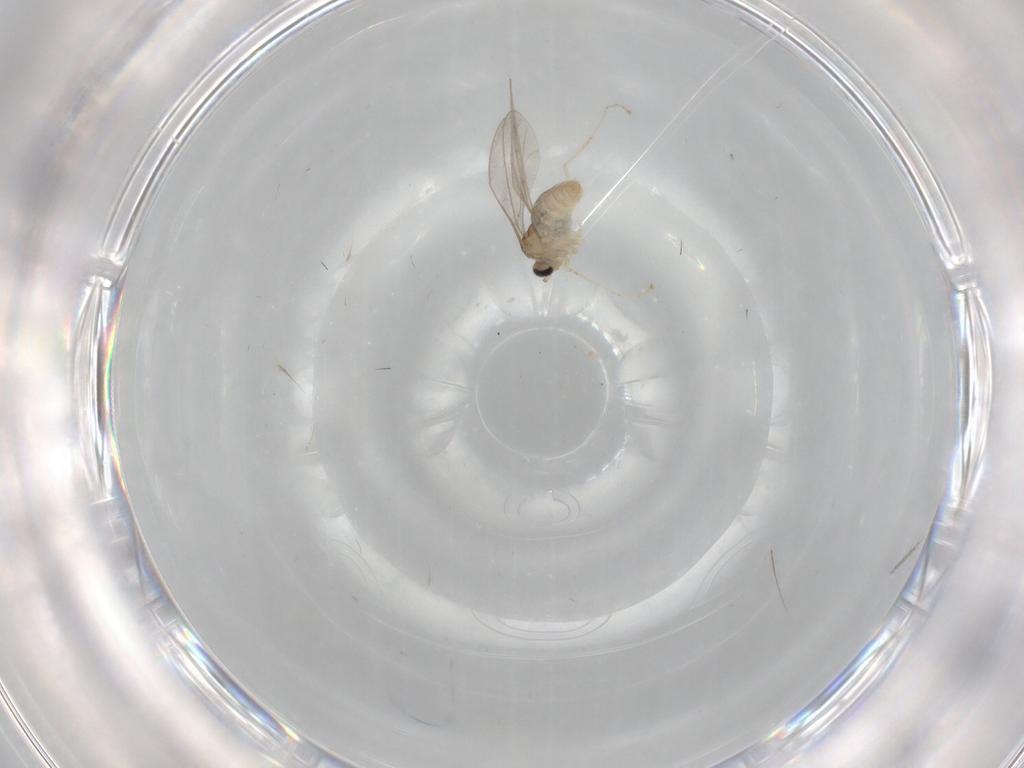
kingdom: Animalia
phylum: Arthropoda
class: Insecta
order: Diptera
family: Cecidomyiidae
